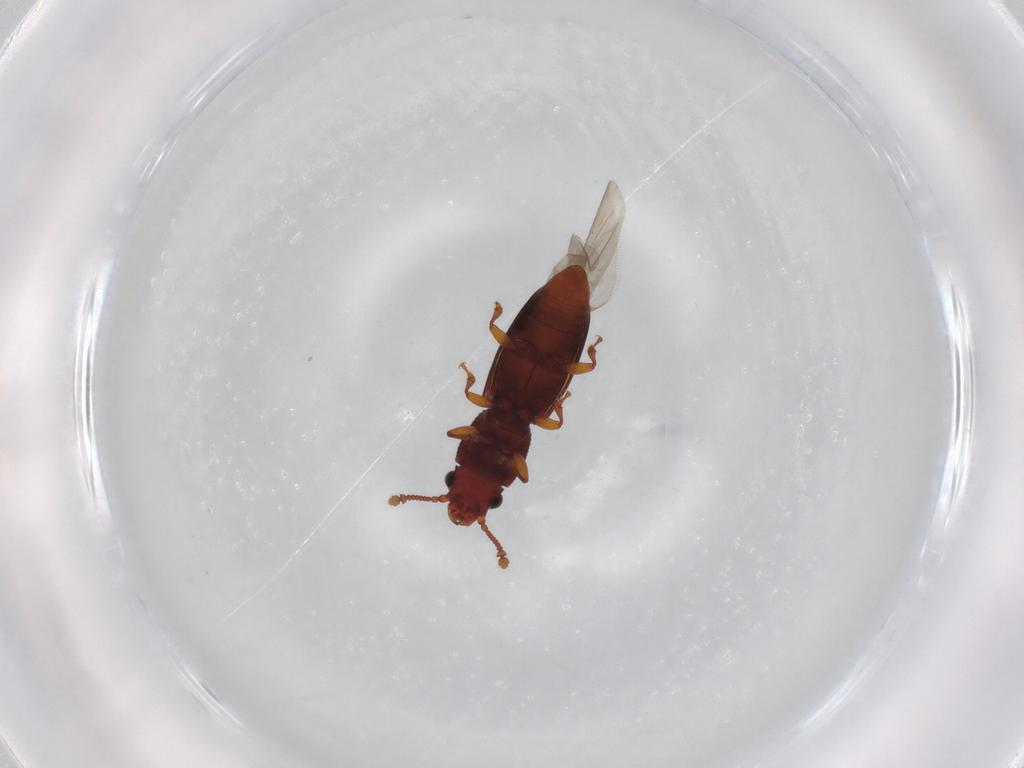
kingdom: Animalia
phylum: Arthropoda
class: Insecta
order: Coleoptera
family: Monotomidae
